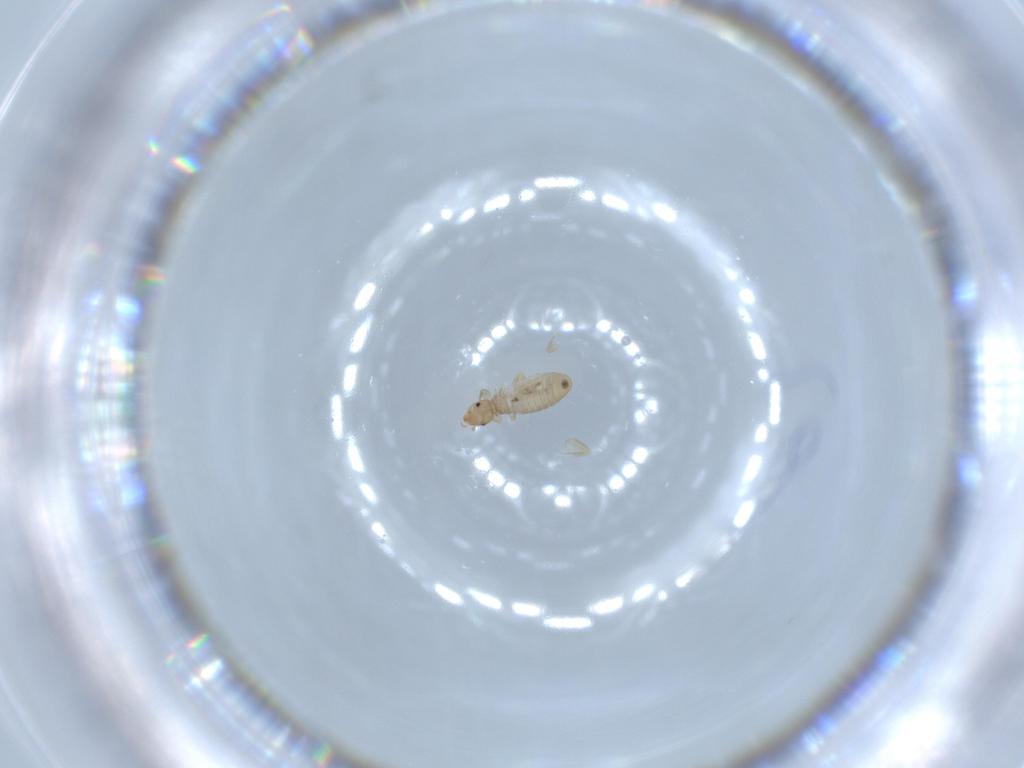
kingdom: Animalia
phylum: Arthropoda
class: Insecta
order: Psocodea
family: Liposcelididae
